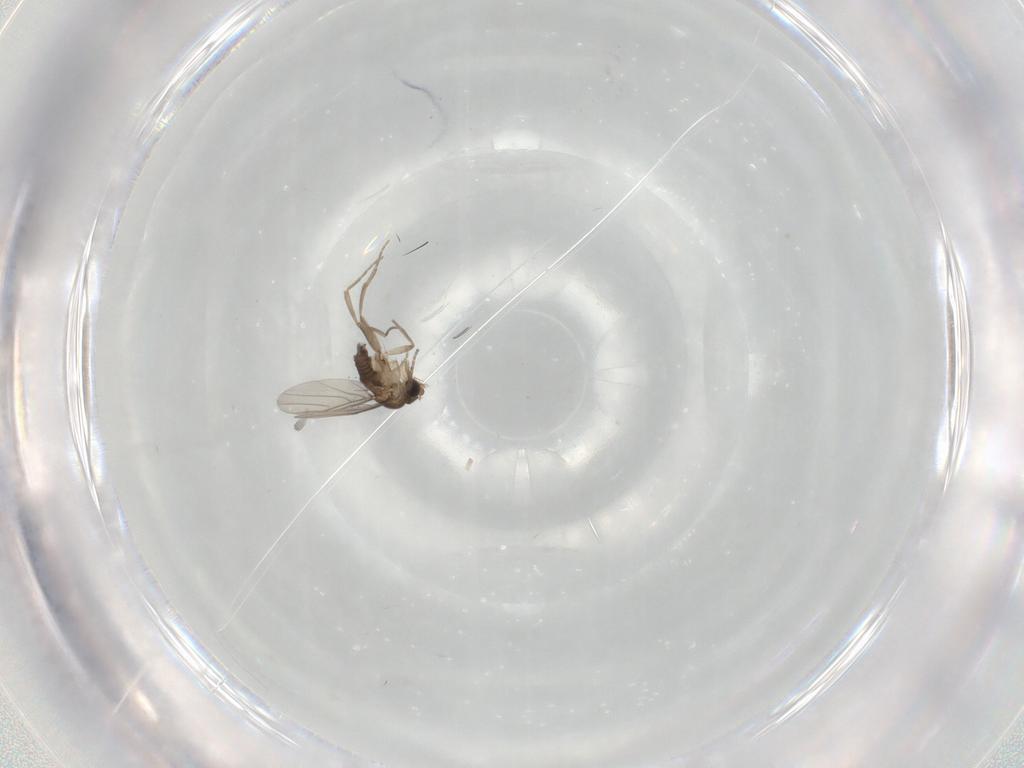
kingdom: Animalia
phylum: Arthropoda
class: Insecta
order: Diptera
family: Phoridae
